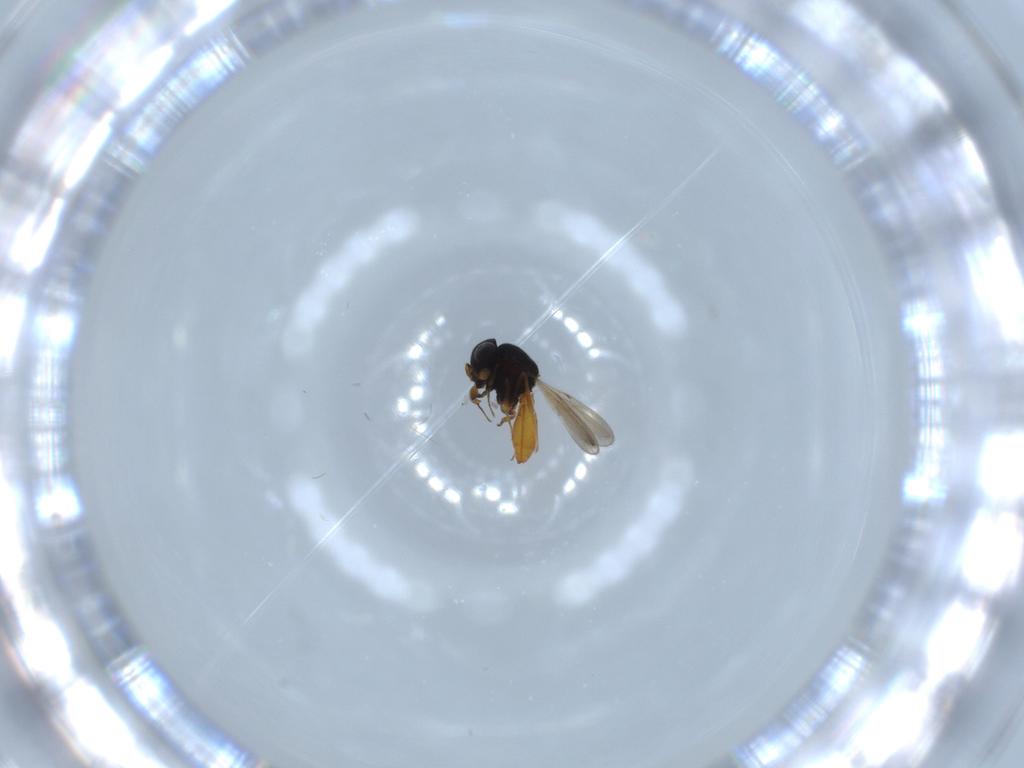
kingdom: Animalia
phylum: Arthropoda
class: Insecta
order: Hymenoptera
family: Scelionidae
